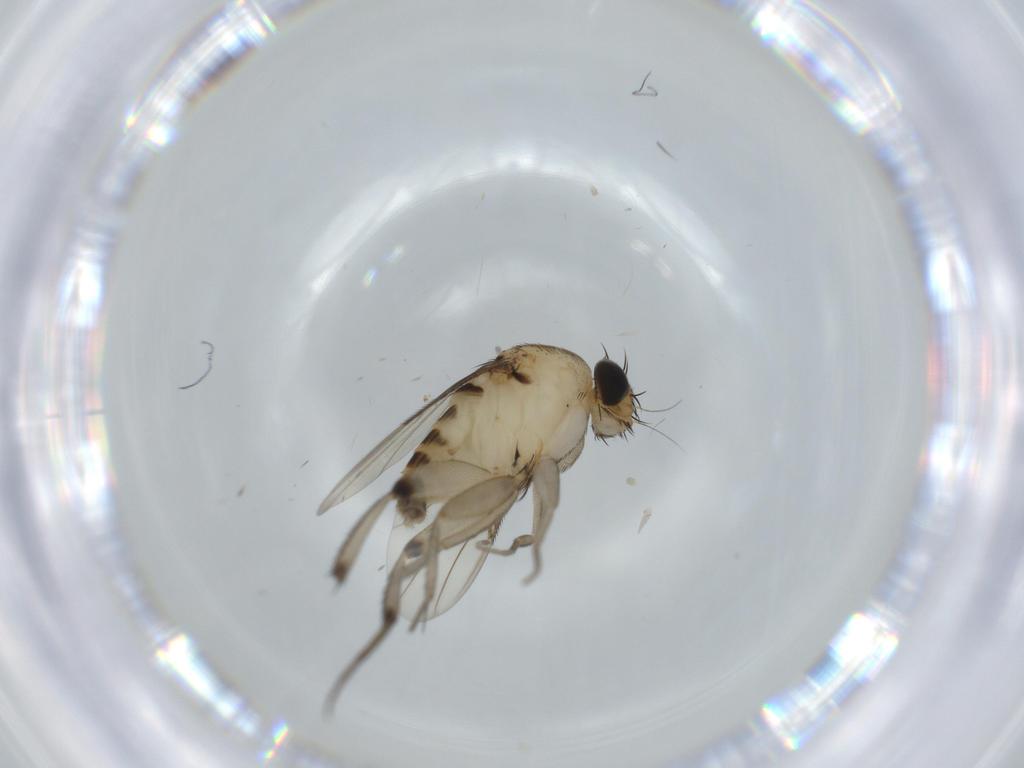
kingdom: Animalia
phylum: Arthropoda
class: Insecta
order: Diptera
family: Phoridae
